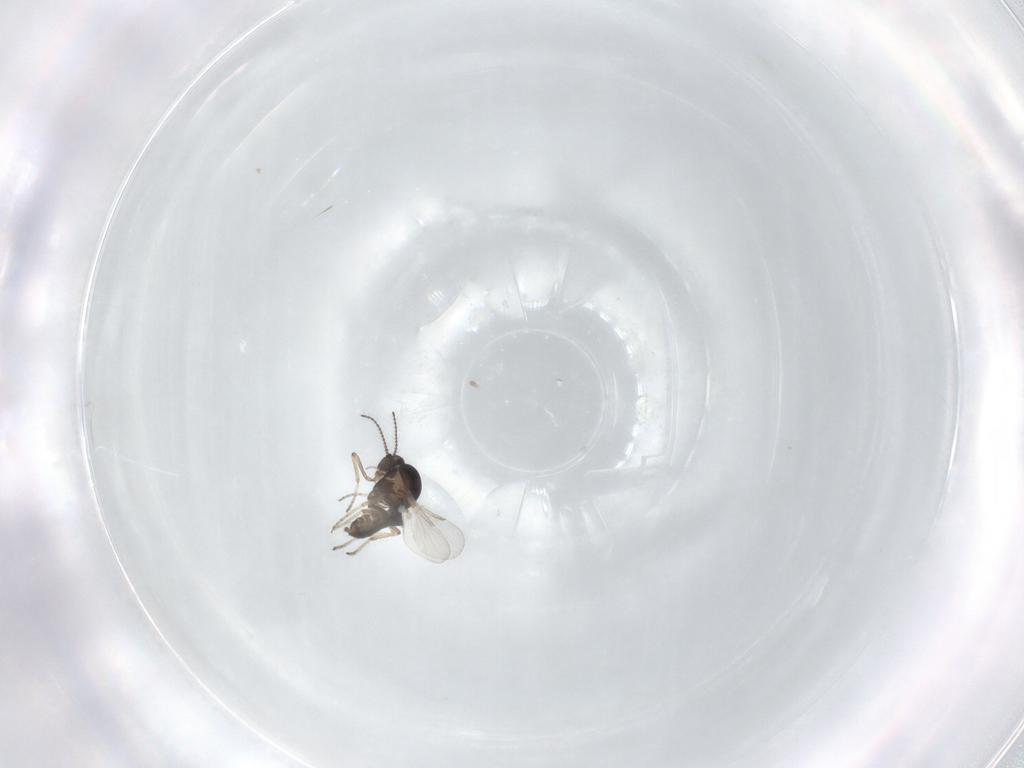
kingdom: Animalia
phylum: Arthropoda
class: Insecta
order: Diptera
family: Ceratopogonidae
